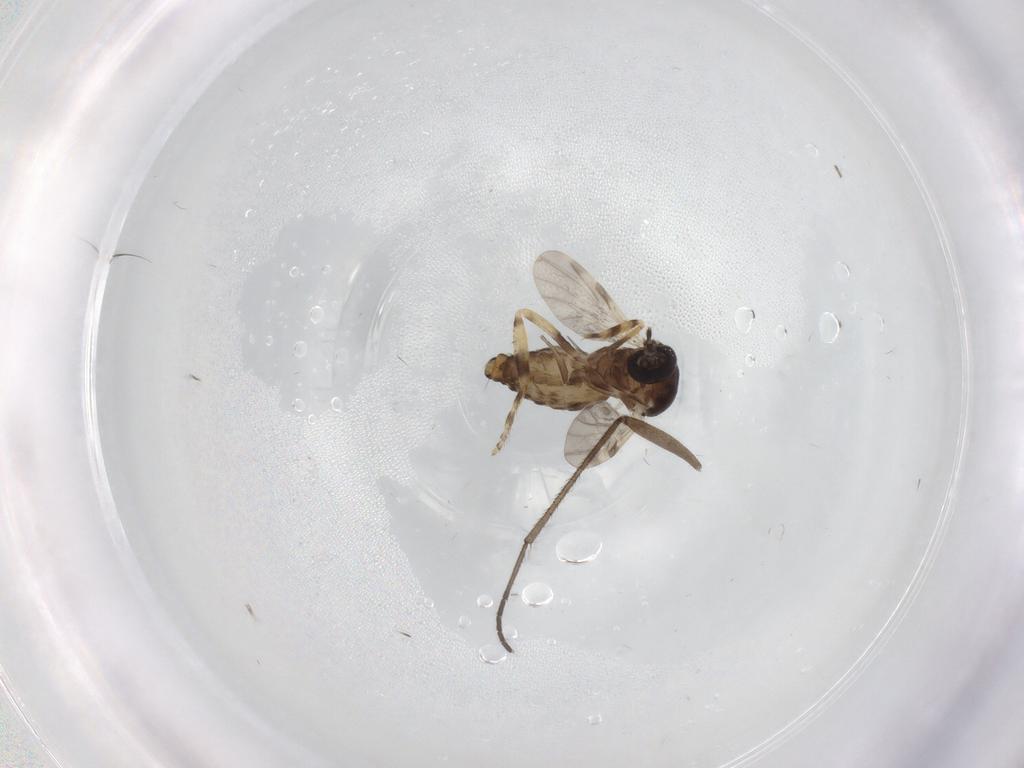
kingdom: Animalia
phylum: Arthropoda
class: Insecta
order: Diptera
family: Ceratopogonidae
